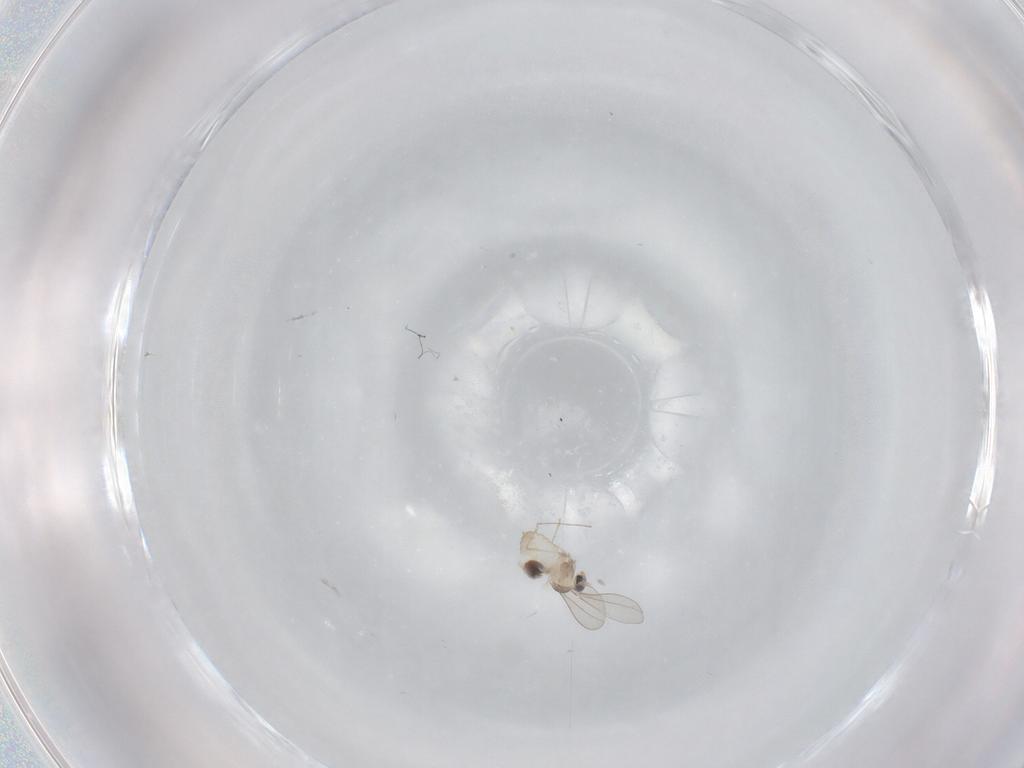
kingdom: Animalia
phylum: Arthropoda
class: Insecta
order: Diptera
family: Cecidomyiidae
